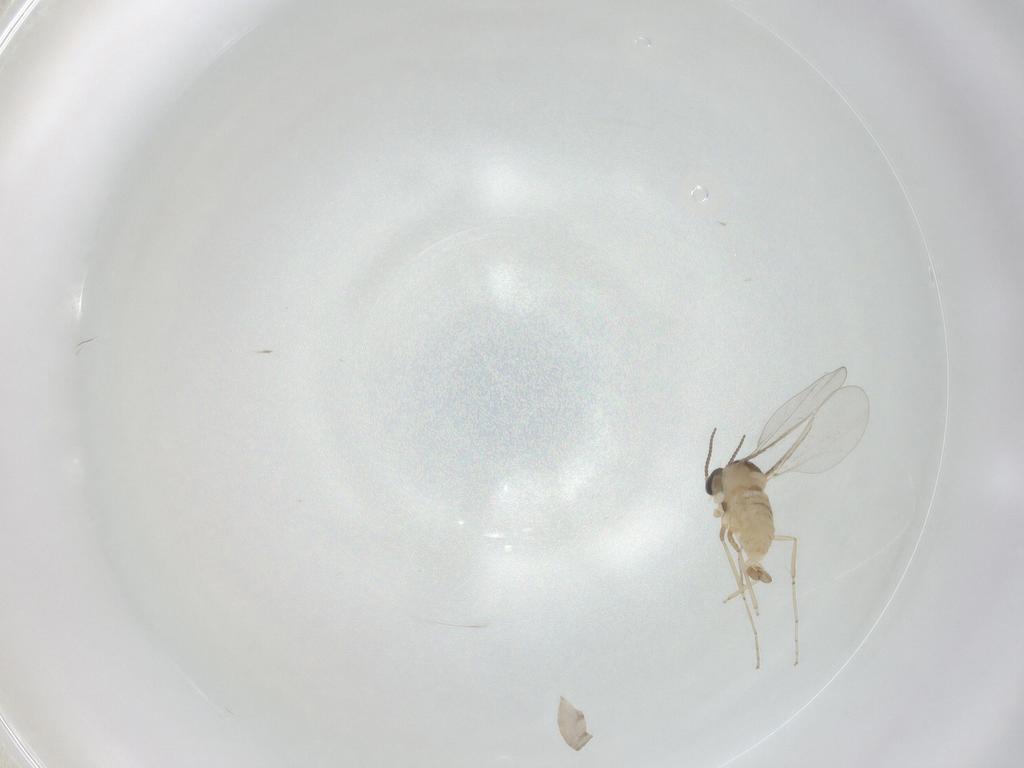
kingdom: Animalia
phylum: Arthropoda
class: Insecta
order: Diptera
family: Cecidomyiidae
